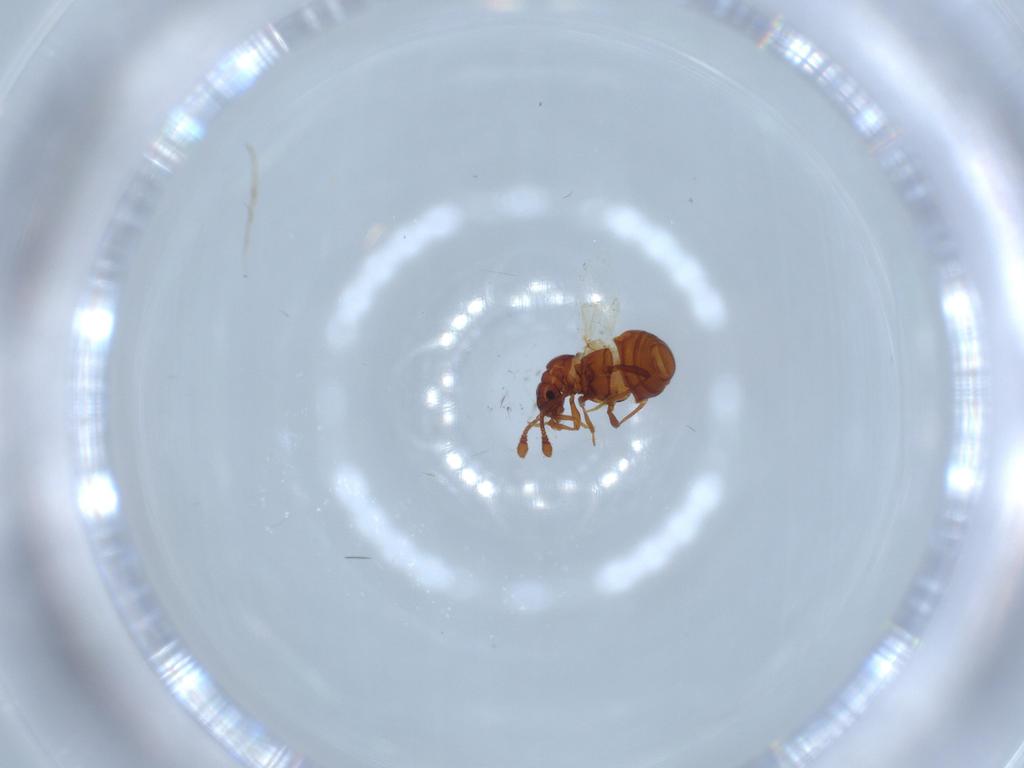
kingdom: Animalia
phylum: Arthropoda
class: Insecta
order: Coleoptera
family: Staphylinidae
